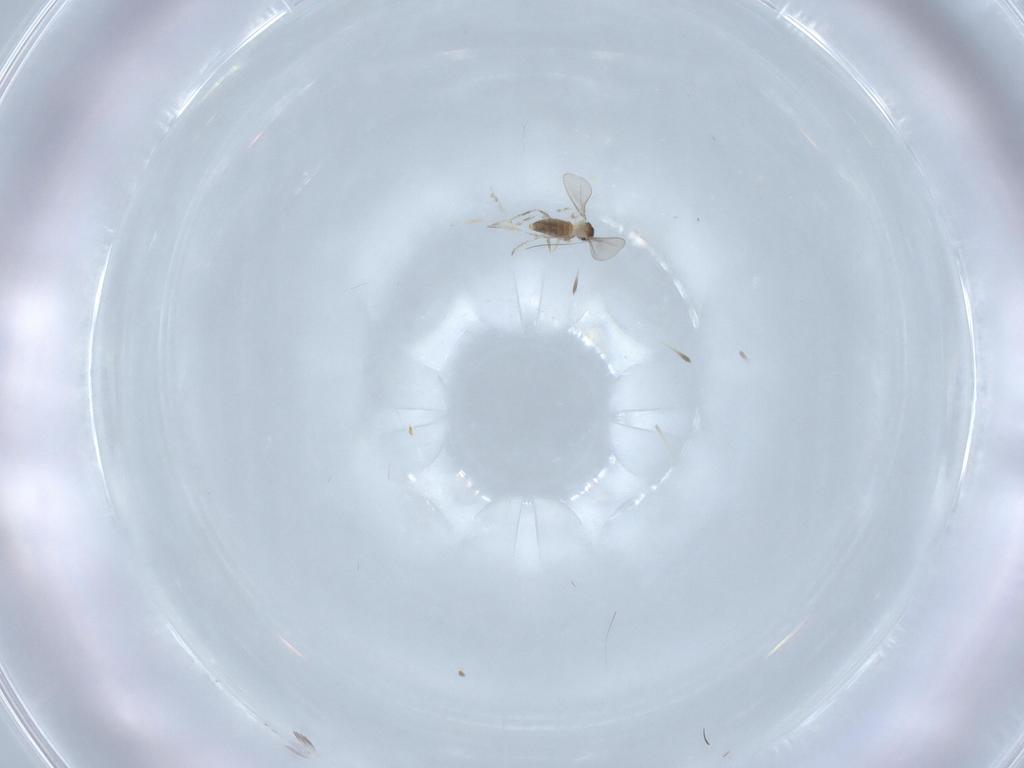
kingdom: Animalia
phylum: Arthropoda
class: Insecta
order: Diptera
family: Cecidomyiidae
